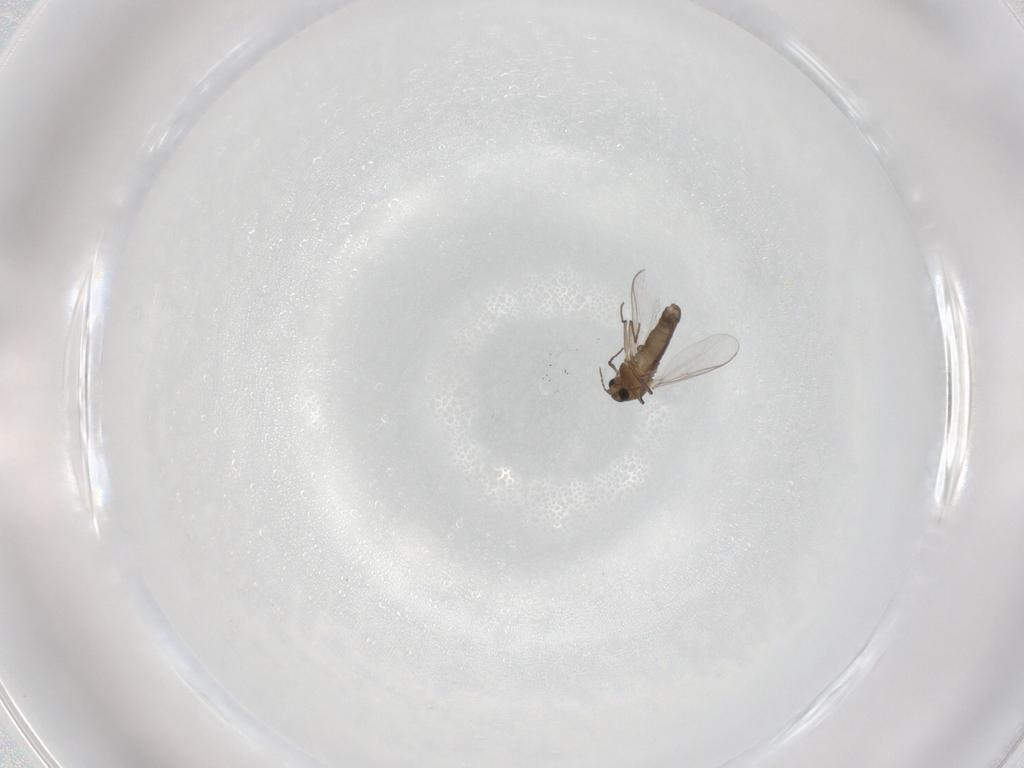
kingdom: Animalia
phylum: Arthropoda
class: Insecta
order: Diptera
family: Chironomidae
